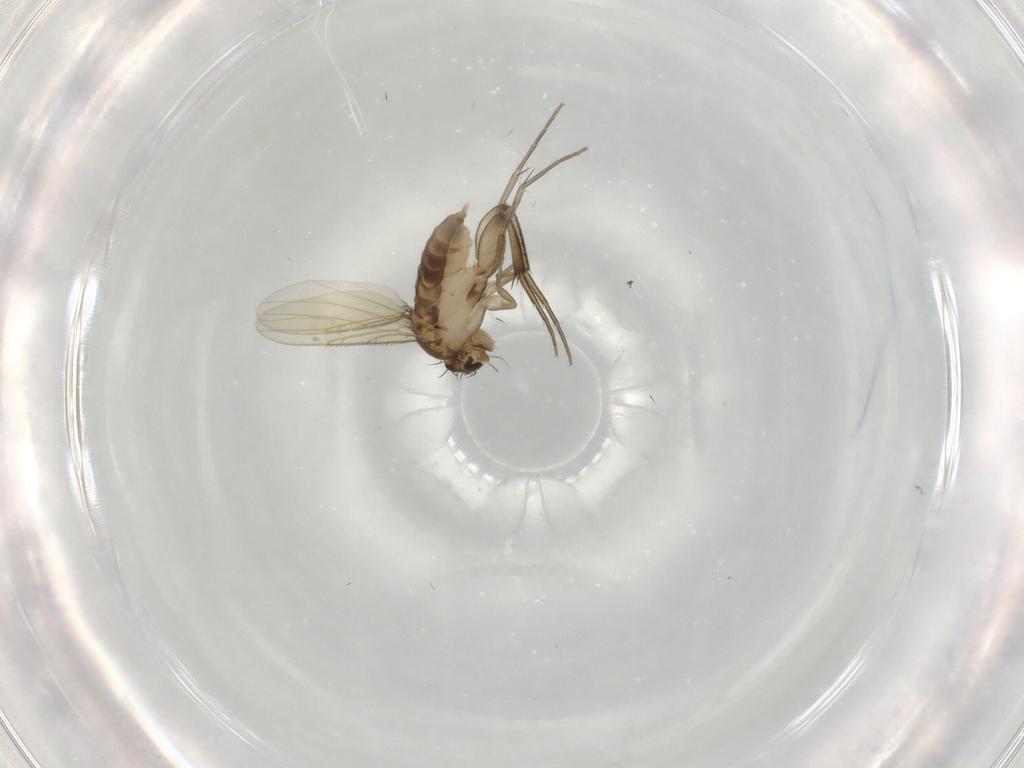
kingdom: Animalia
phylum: Arthropoda
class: Insecta
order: Diptera
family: Phoridae
